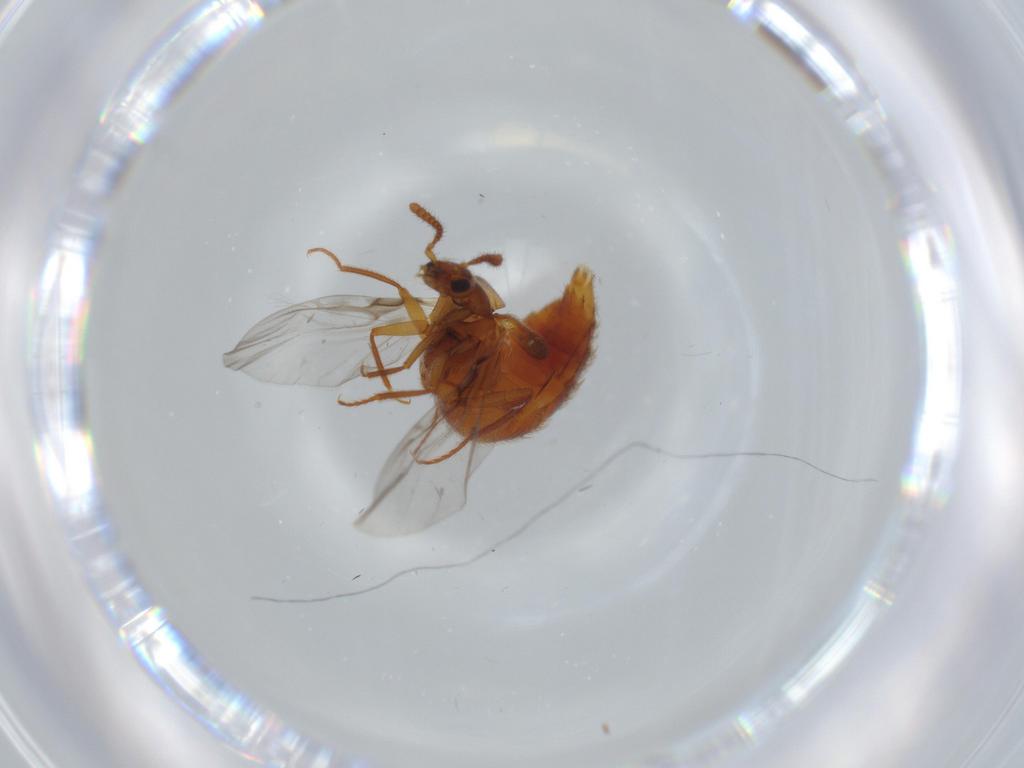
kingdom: Animalia
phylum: Arthropoda
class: Insecta
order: Coleoptera
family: Staphylinidae
